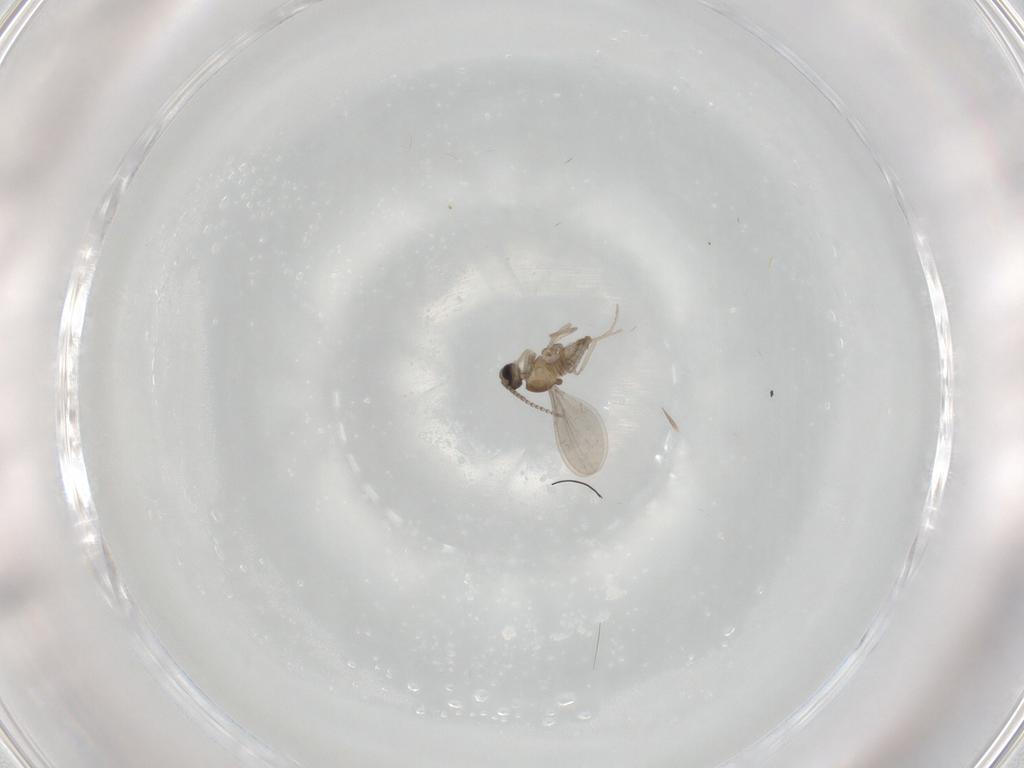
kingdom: Animalia
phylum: Arthropoda
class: Insecta
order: Diptera
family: Cecidomyiidae
